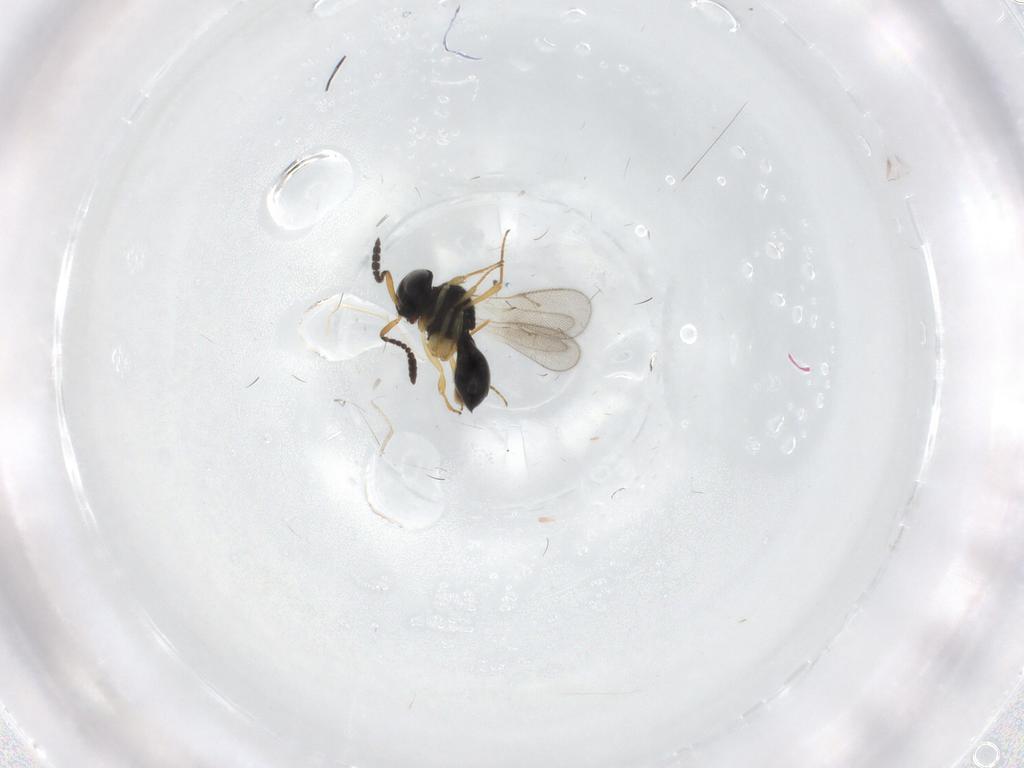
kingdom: Animalia
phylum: Arthropoda
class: Insecta
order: Hymenoptera
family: Scelionidae
